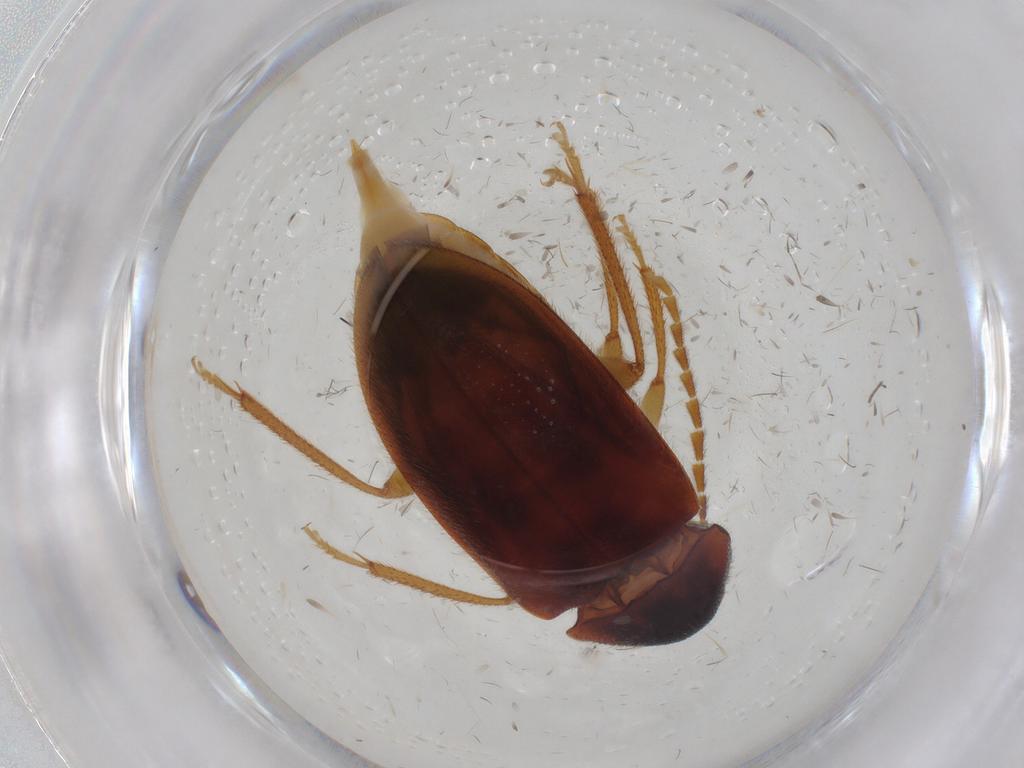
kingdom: Animalia
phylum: Arthropoda
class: Insecta
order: Coleoptera
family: Ptilodactylidae
